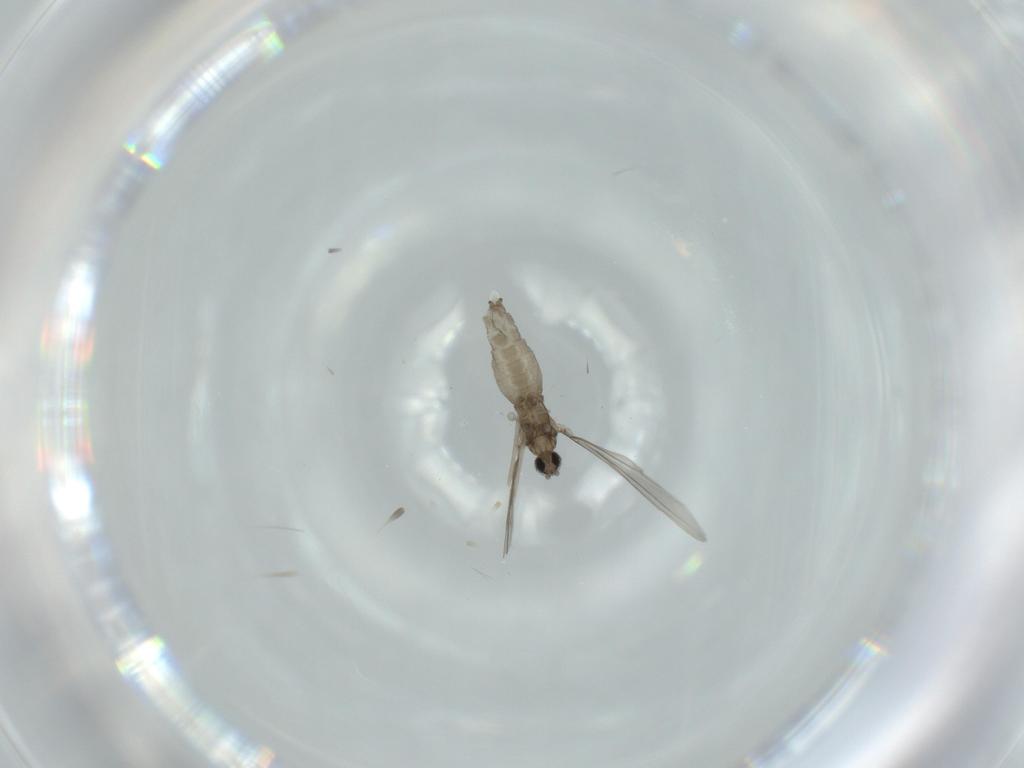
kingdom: Animalia
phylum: Arthropoda
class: Insecta
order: Diptera
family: Cecidomyiidae
